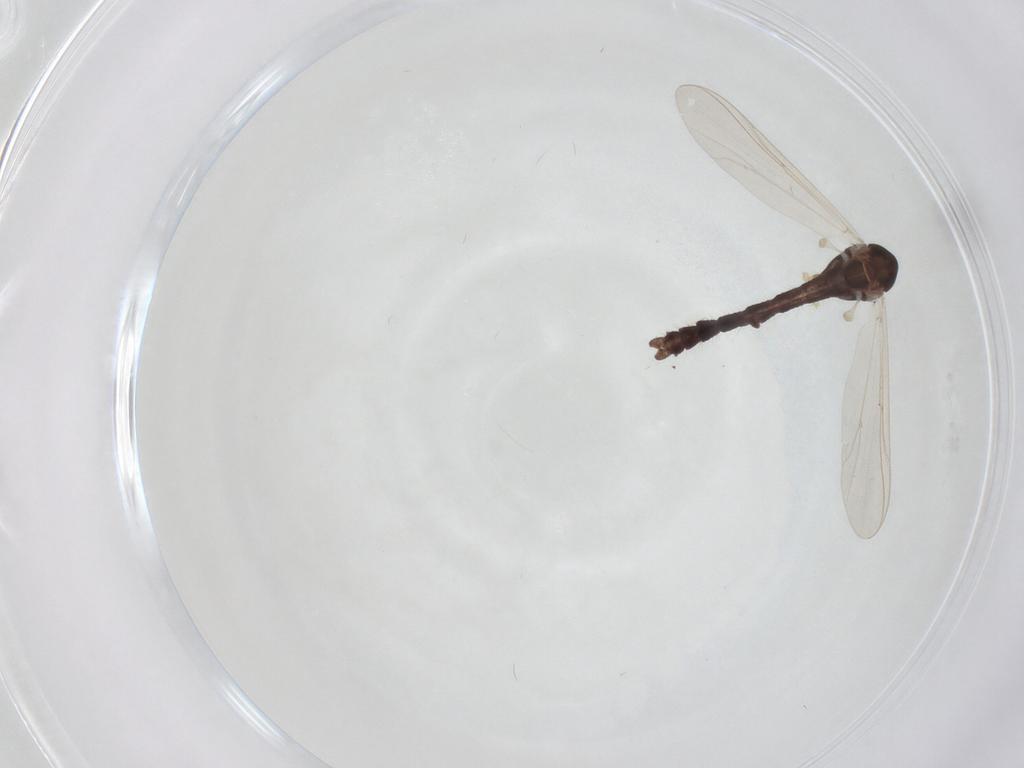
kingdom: Animalia
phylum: Arthropoda
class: Insecta
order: Diptera
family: Chironomidae
